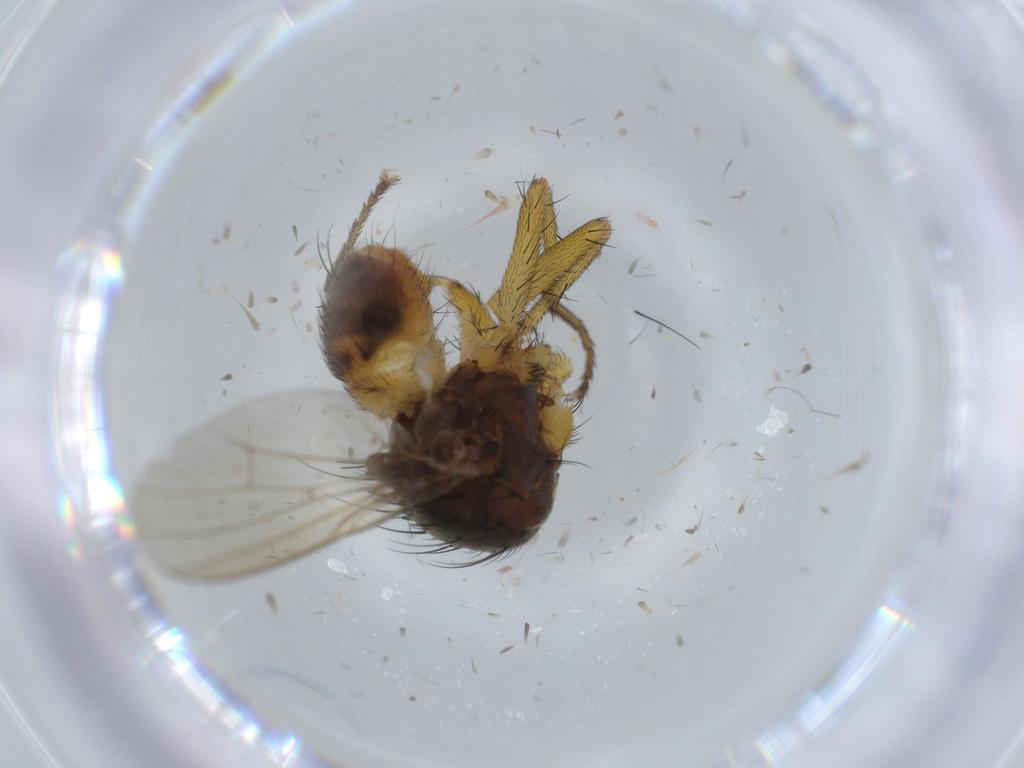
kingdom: Animalia
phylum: Arthropoda
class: Insecta
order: Diptera
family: Muscidae
